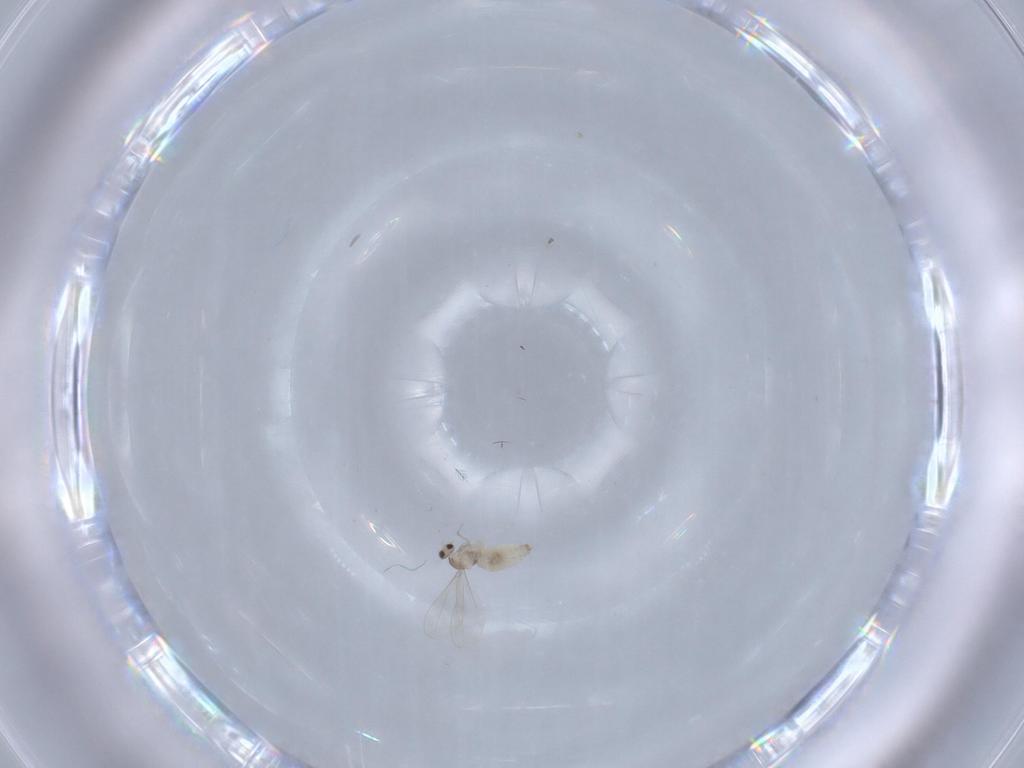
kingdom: Animalia
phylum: Arthropoda
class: Insecta
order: Diptera
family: Cecidomyiidae
